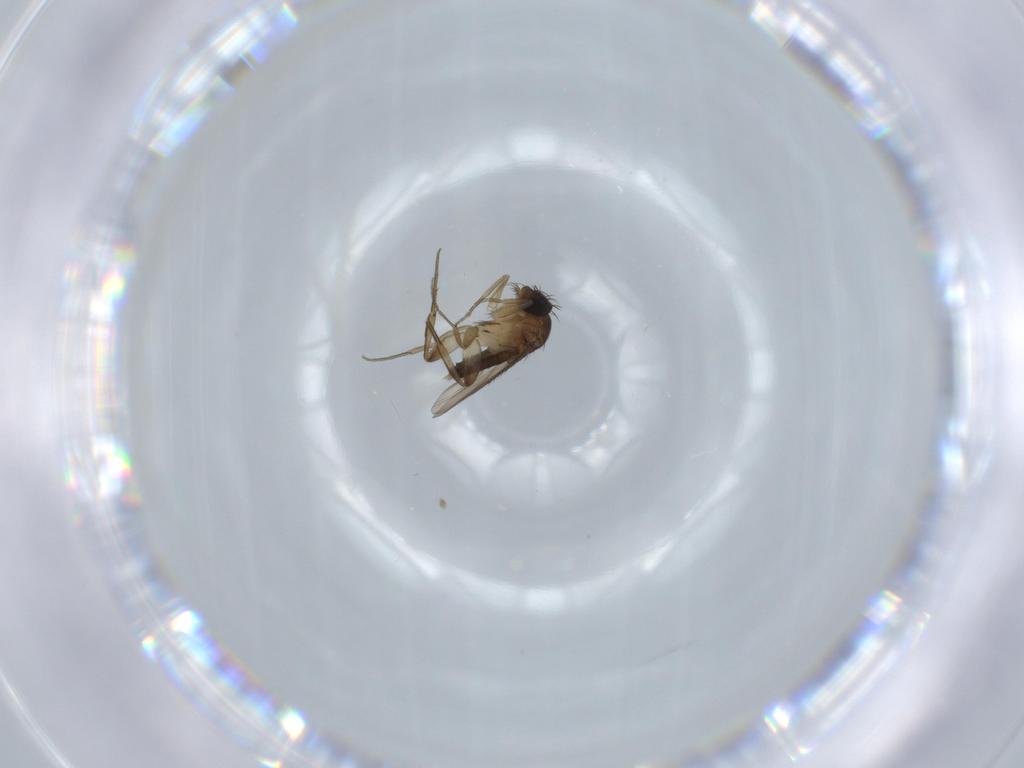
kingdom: Animalia
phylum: Arthropoda
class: Insecta
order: Diptera
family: Phoridae
